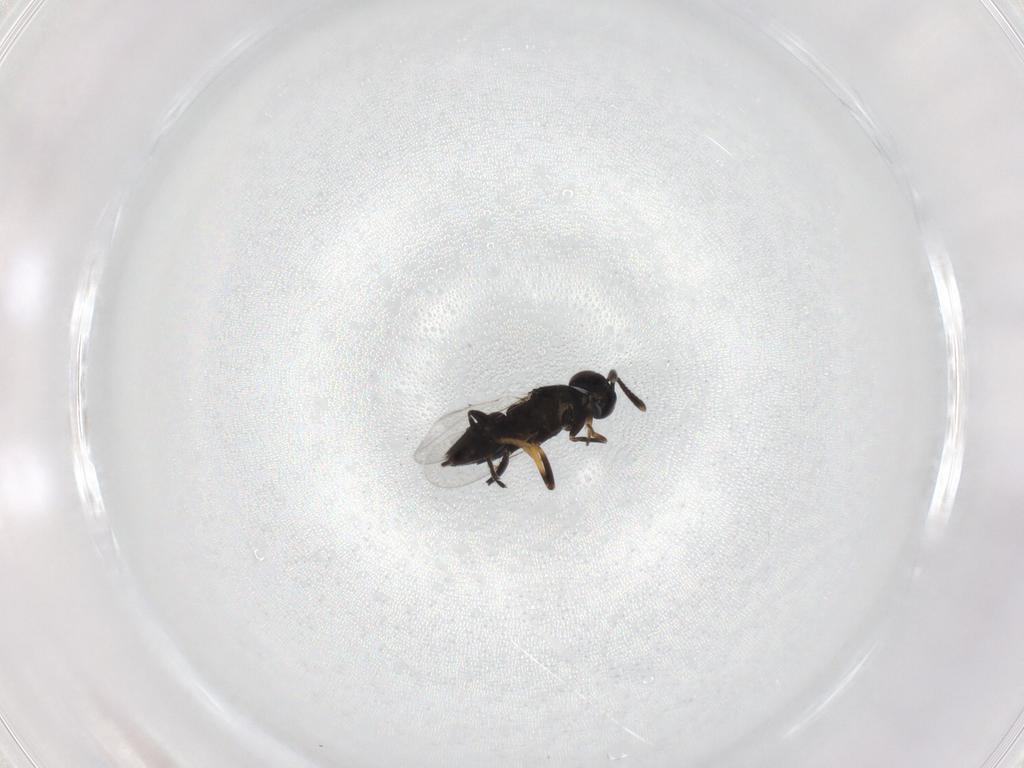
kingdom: Animalia
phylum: Arthropoda
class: Insecta
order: Hymenoptera
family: Scelionidae
